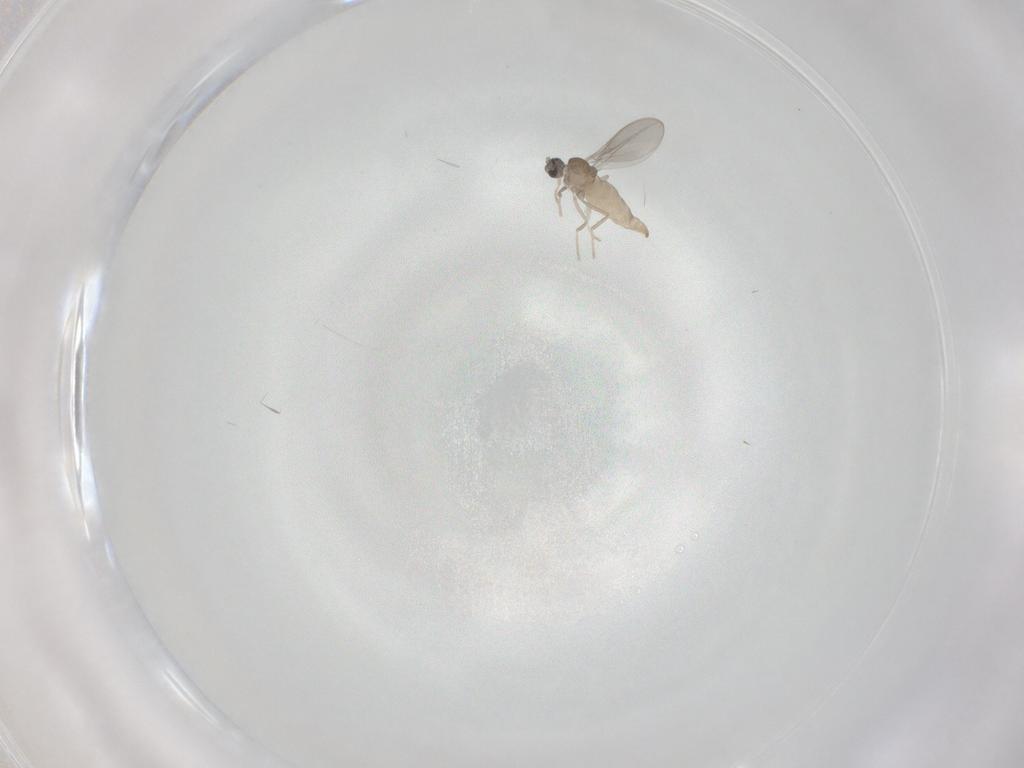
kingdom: Animalia
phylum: Arthropoda
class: Insecta
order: Diptera
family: Cecidomyiidae
